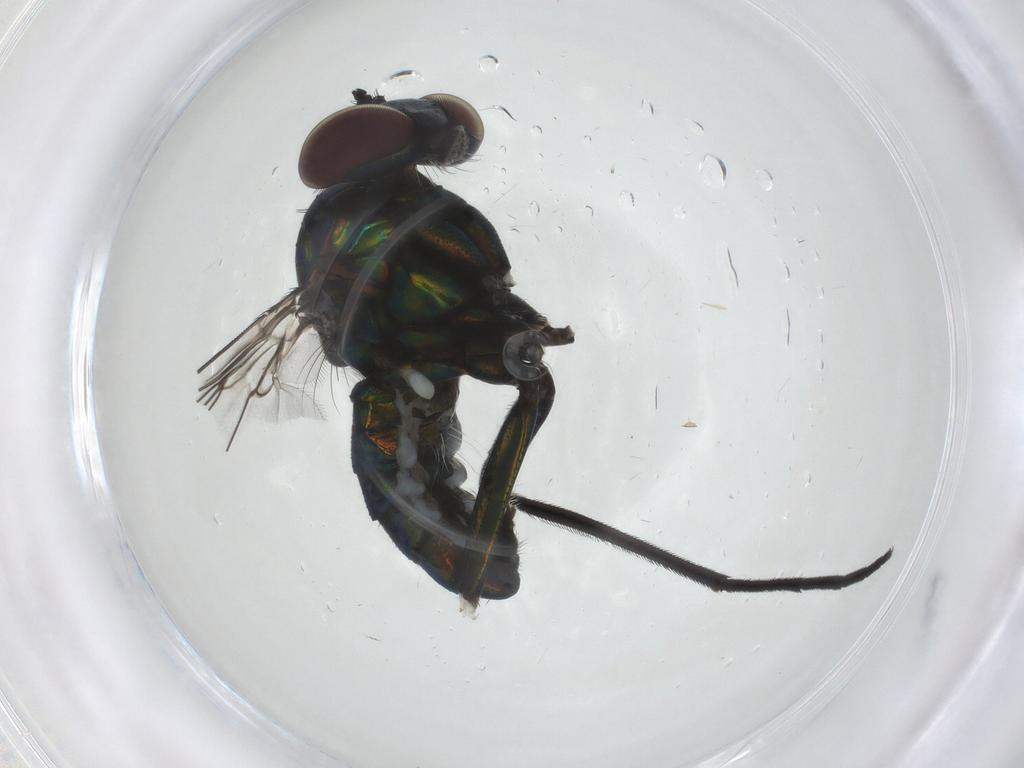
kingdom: Animalia
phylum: Arthropoda
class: Insecta
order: Diptera
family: Dolichopodidae
